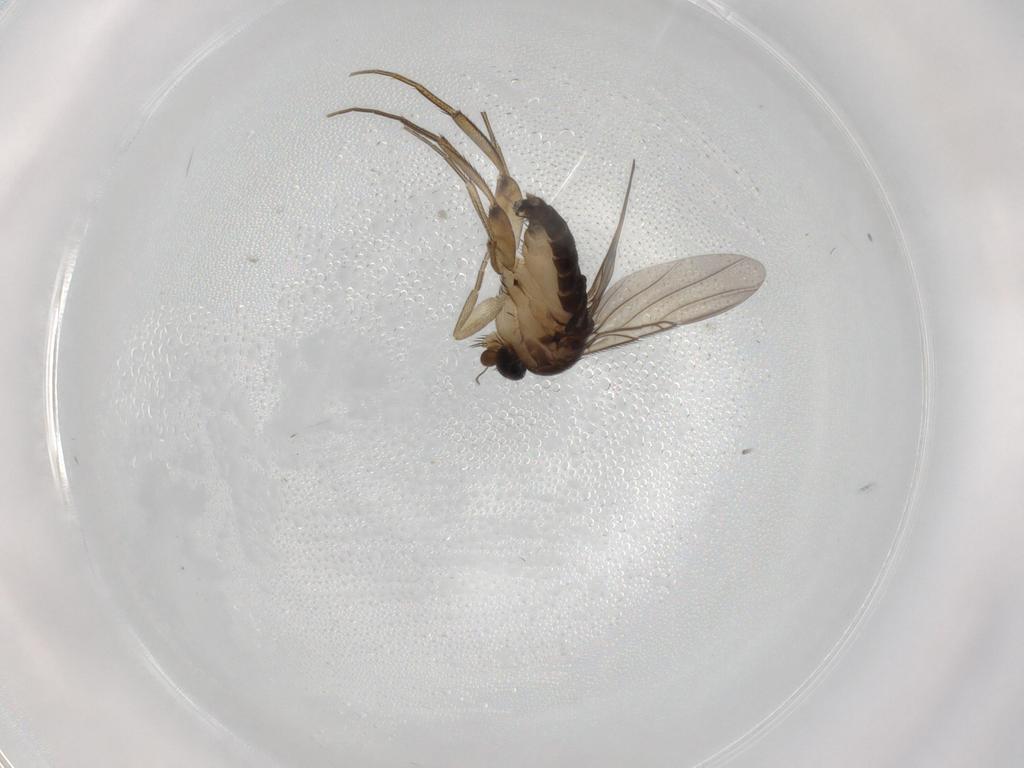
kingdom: Animalia
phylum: Arthropoda
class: Insecta
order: Diptera
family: Phoridae
